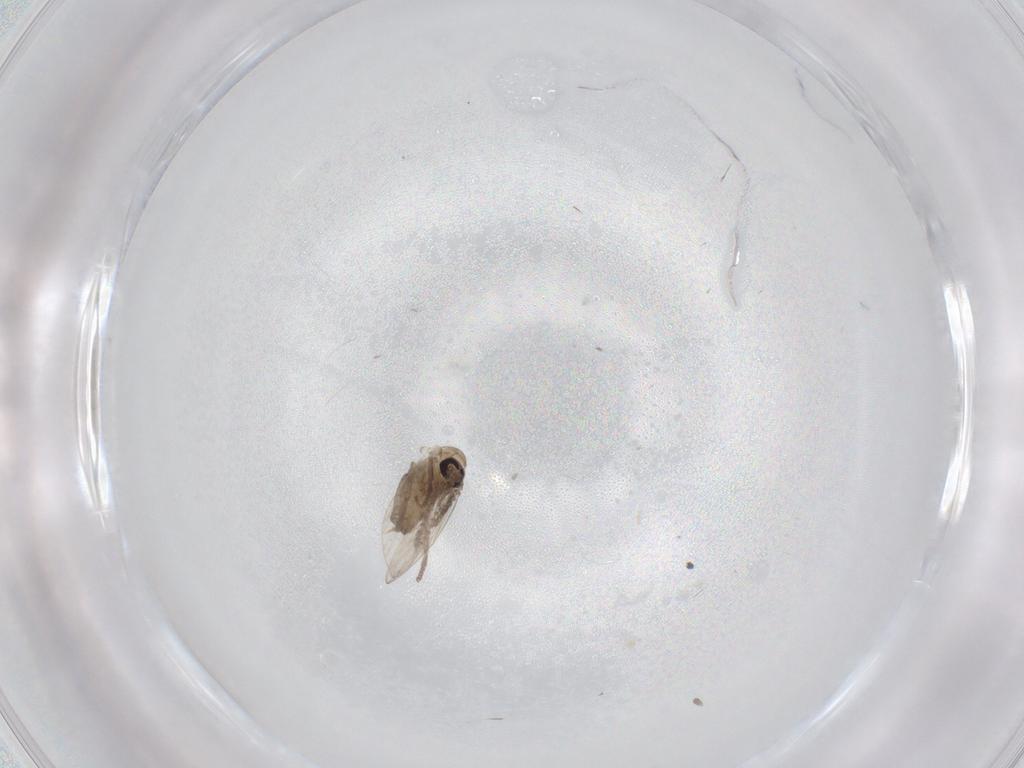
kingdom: Animalia
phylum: Arthropoda
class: Insecta
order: Diptera
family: Psychodidae
